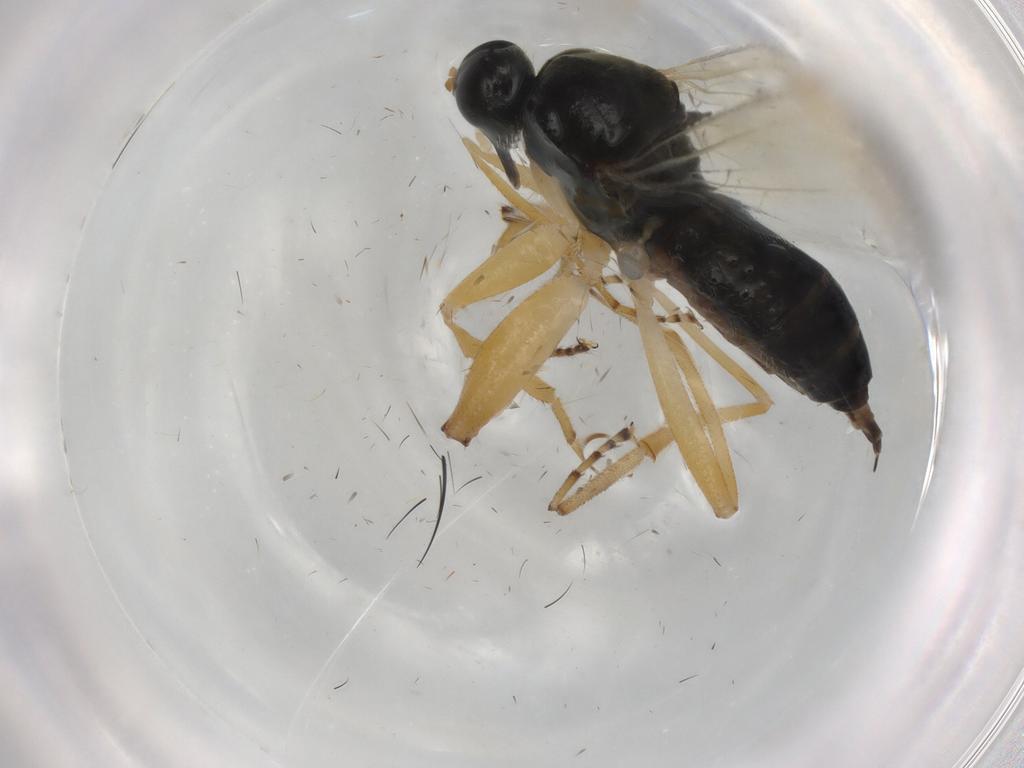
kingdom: Animalia
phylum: Arthropoda
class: Insecta
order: Diptera
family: Hybotidae
